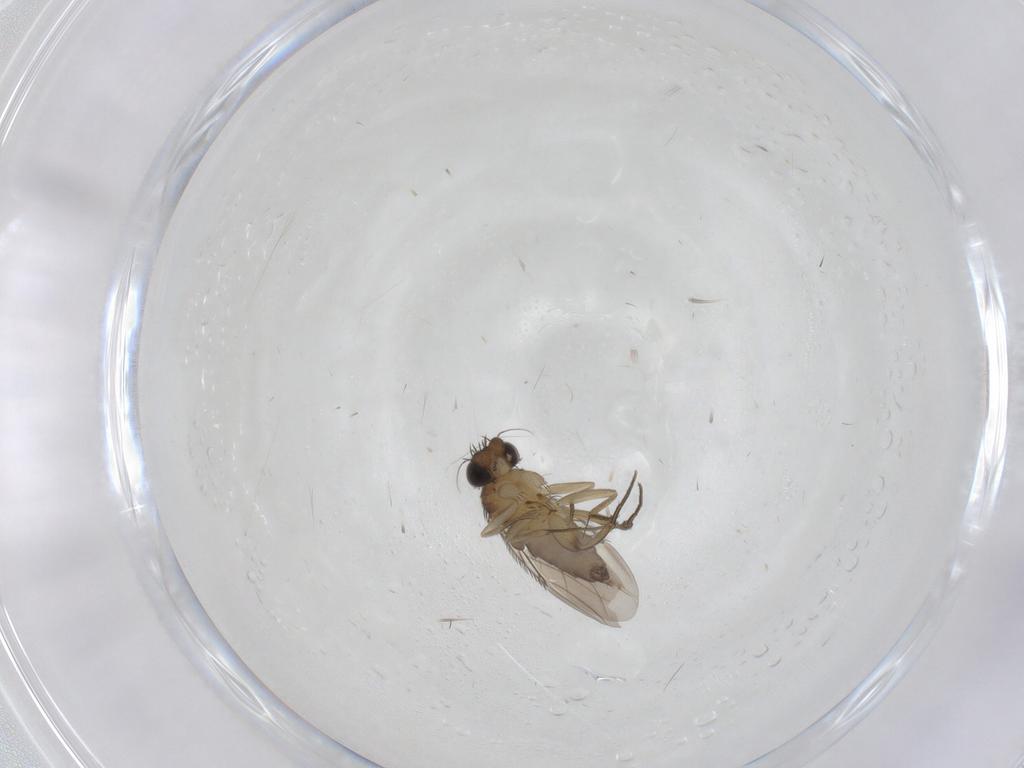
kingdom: Animalia
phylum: Arthropoda
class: Insecta
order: Diptera
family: Phoridae
